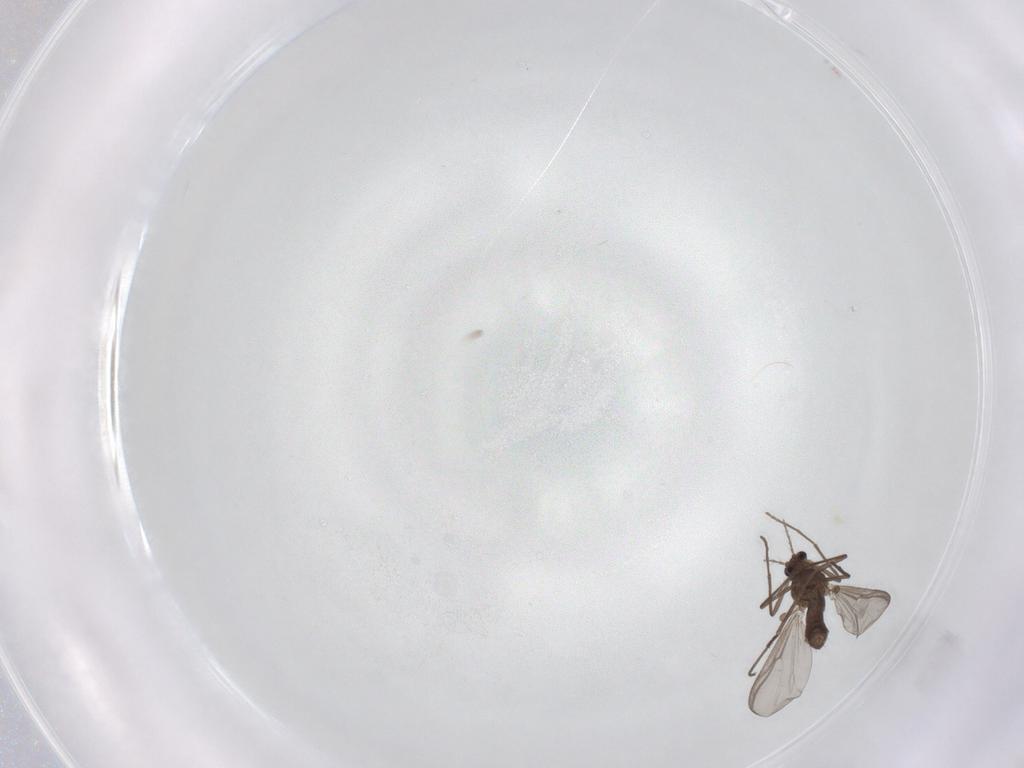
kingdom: Animalia
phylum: Arthropoda
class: Insecta
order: Diptera
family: Chironomidae
